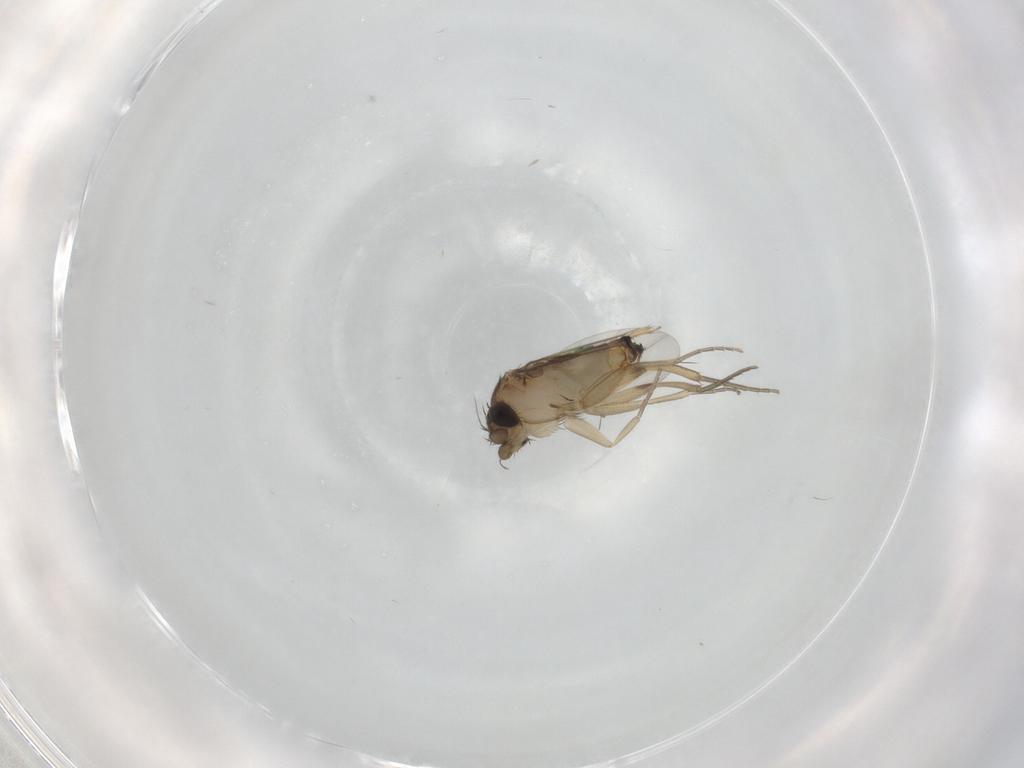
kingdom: Animalia
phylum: Arthropoda
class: Insecta
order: Diptera
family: Phoridae
